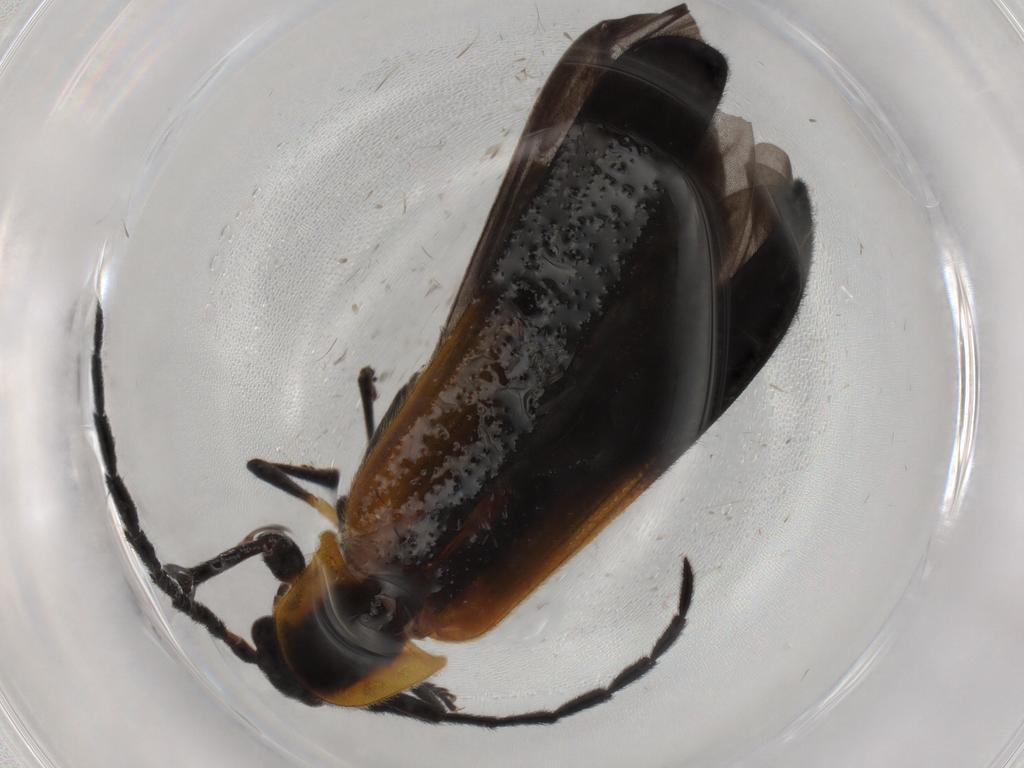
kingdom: Animalia
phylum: Arthropoda
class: Insecta
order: Coleoptera
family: Lycidae
